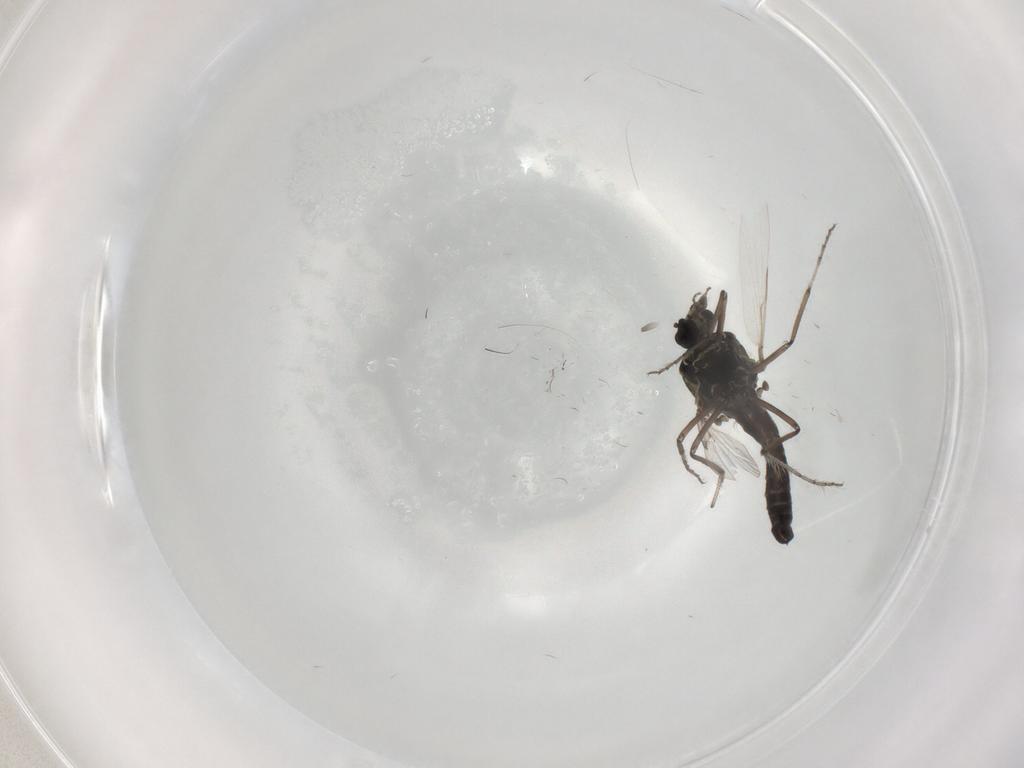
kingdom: Animalia
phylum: Arthropoda
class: Insecta
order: Diptera
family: Ceratopogonidae
